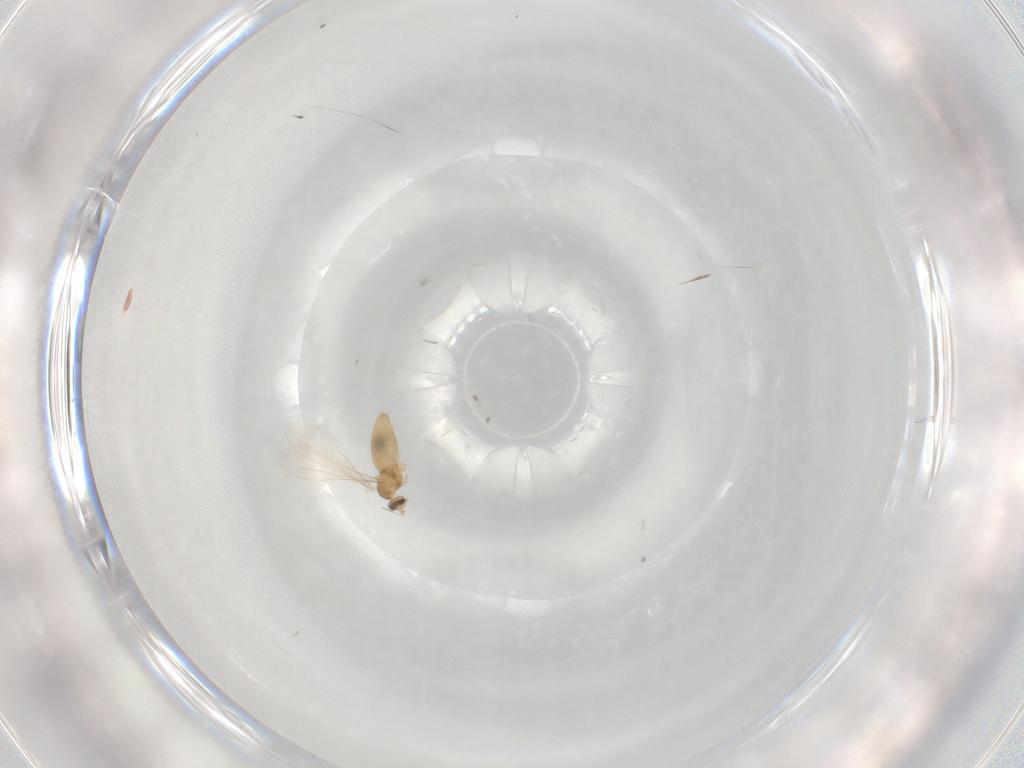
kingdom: Animalia
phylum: Arthropoda
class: Insecta
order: Diptera
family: Cecidomyiidae
